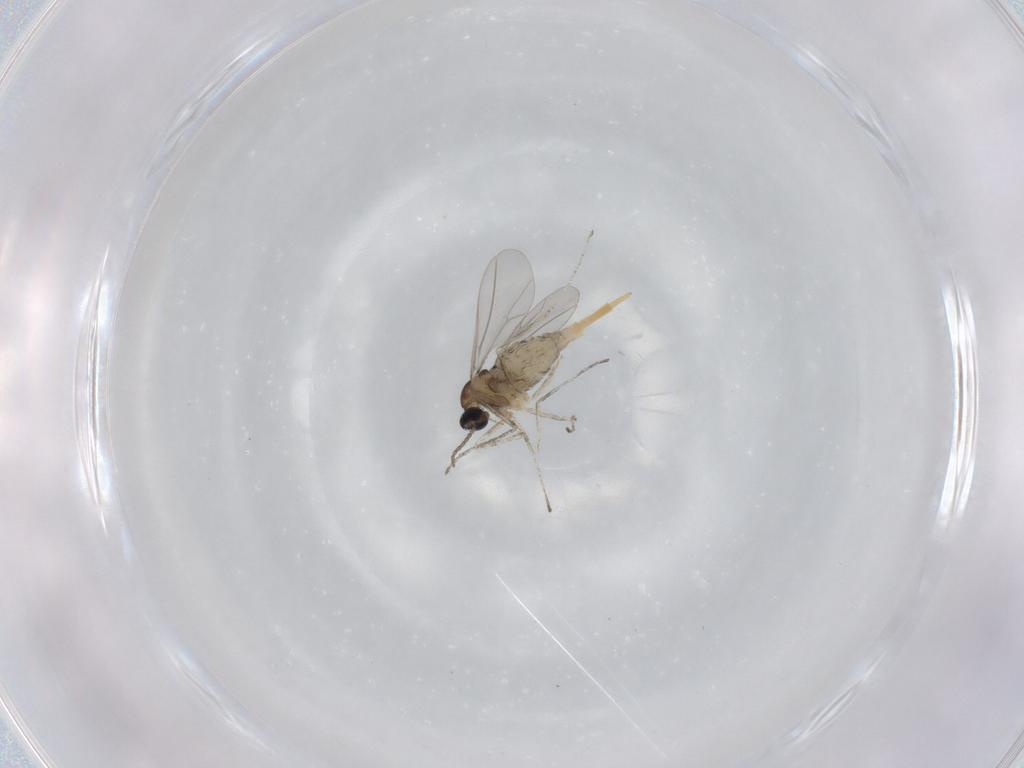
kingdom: Animalia
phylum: Arthropoda
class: Insecta
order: Diptera
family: Cecidomyiidae
